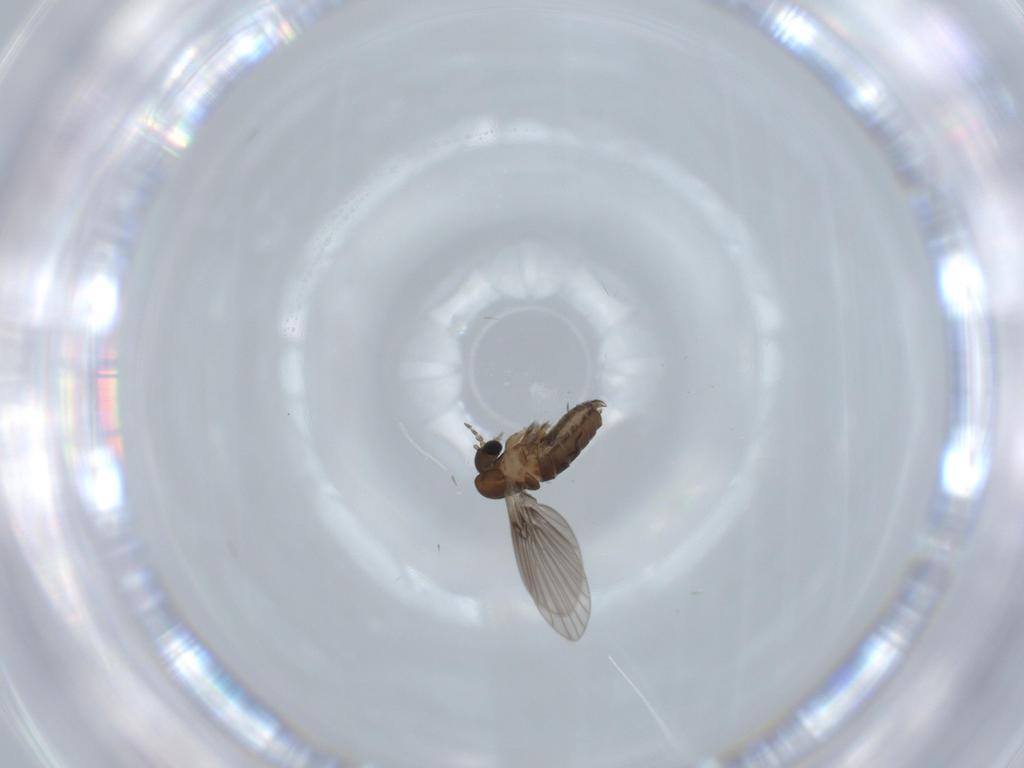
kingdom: Animalia
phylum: Arthropoda
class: Insecta
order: Diptera
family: Psychodidae
